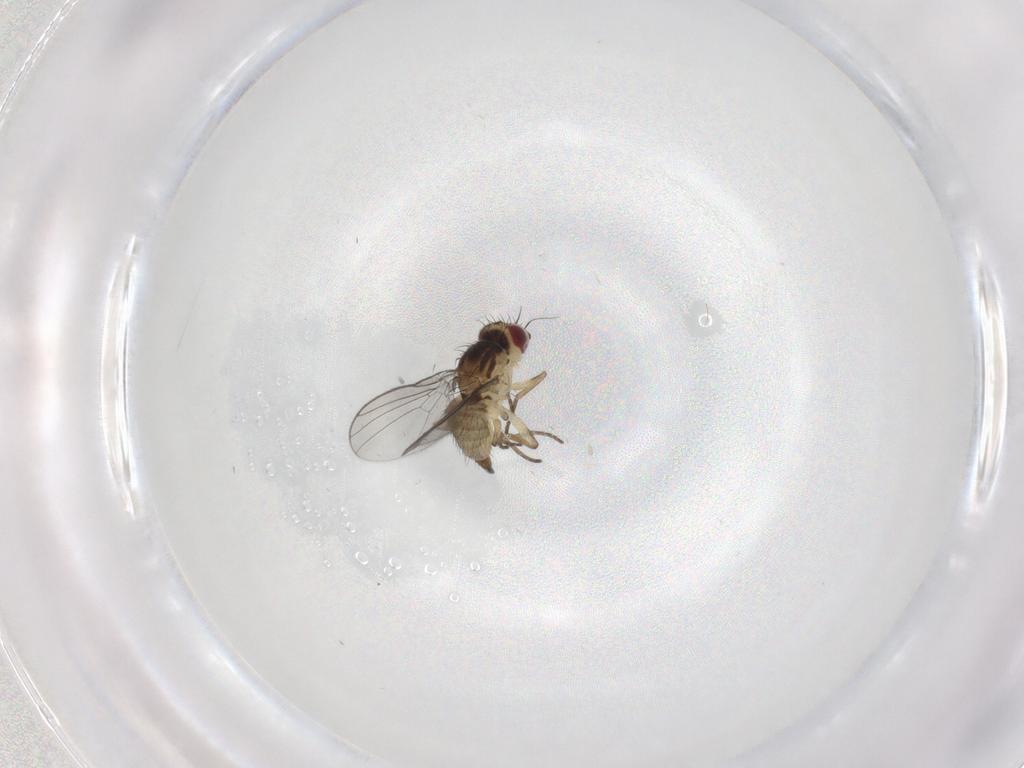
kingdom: Animalia
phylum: Arthropoda
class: Insecta
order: Diptera
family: Agromyzidae
